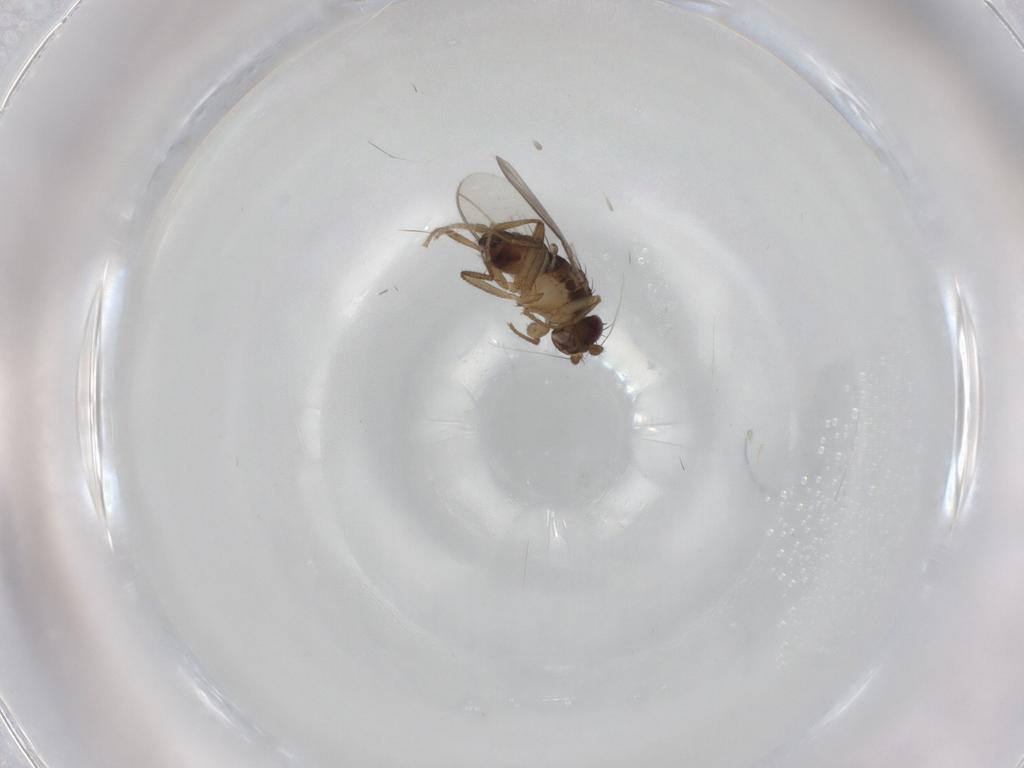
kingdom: Animalia
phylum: Arthropoda
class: Insecta
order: Diptera
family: Sphaeroceridae
